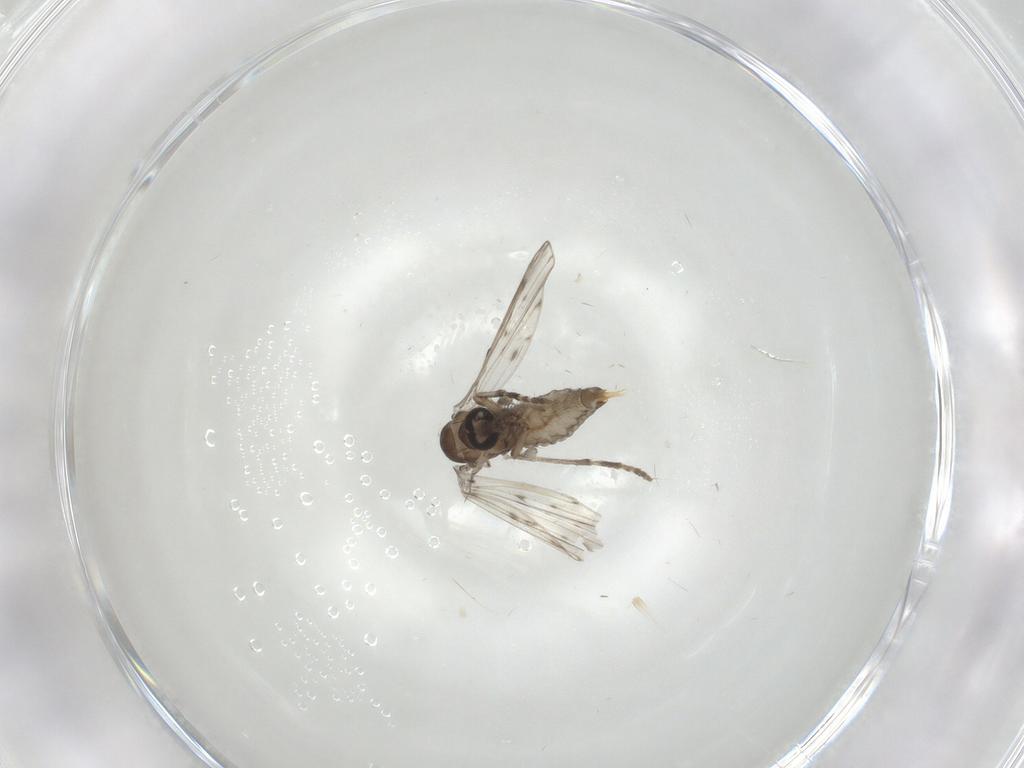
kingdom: Animalia
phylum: Arthropoda
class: Insecta
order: Diptera
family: Psychodidae
